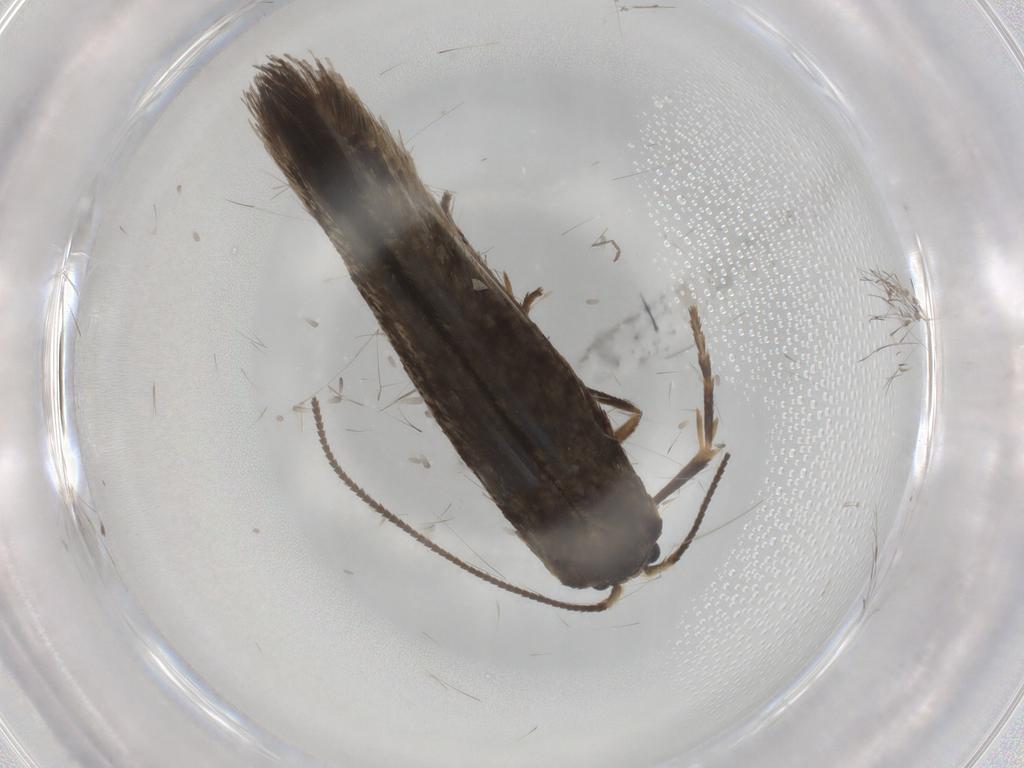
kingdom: Animalia
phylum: Arthropoda
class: Insecta
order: Lepidoptera
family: Nepticulidae
